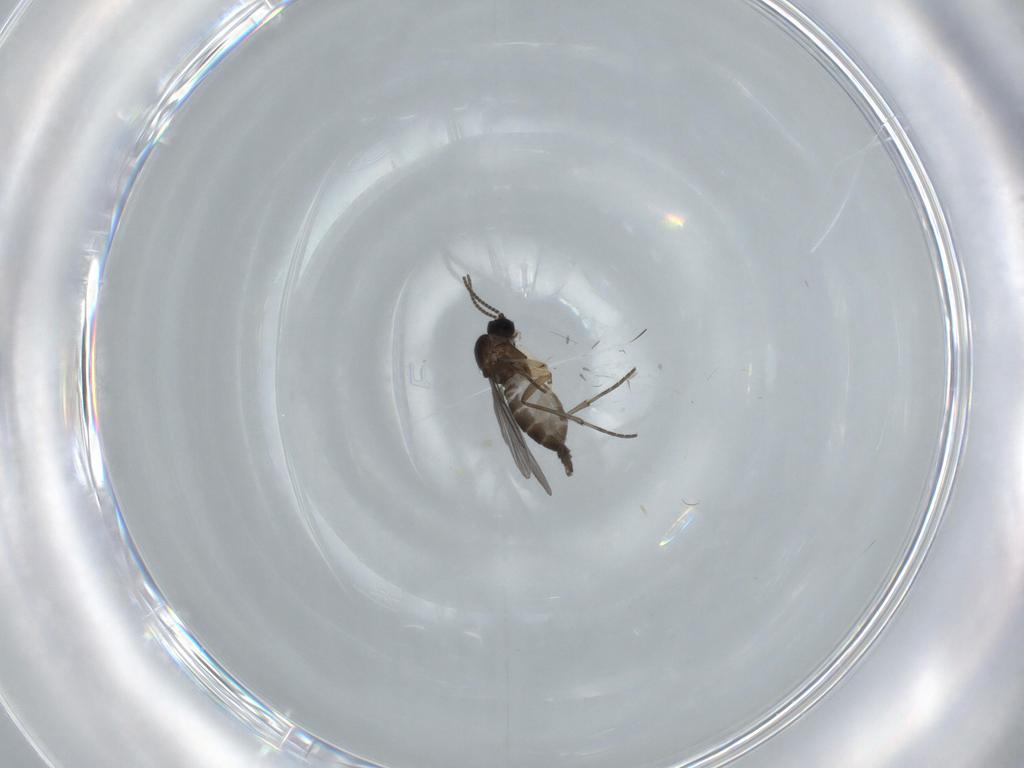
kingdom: Animalia
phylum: Arthropoda
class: Insecta
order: Diptera
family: Sciaridae
